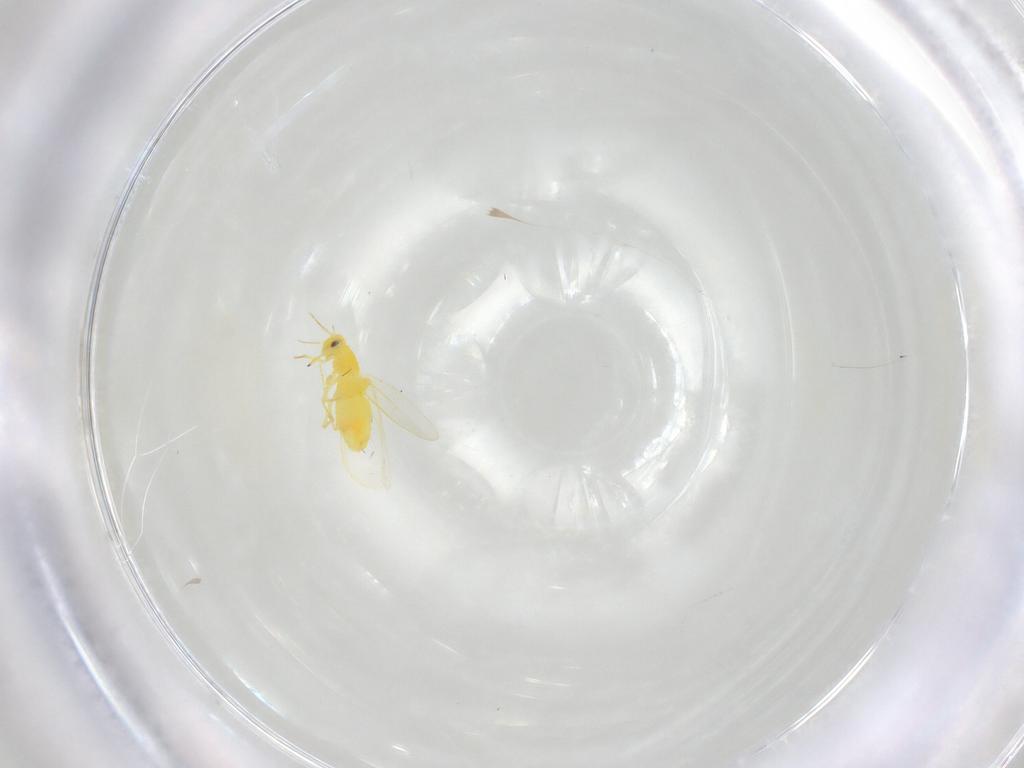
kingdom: Animalia
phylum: Arthropoda
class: Insecta
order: Hemiptera
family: Aleyrodidae
